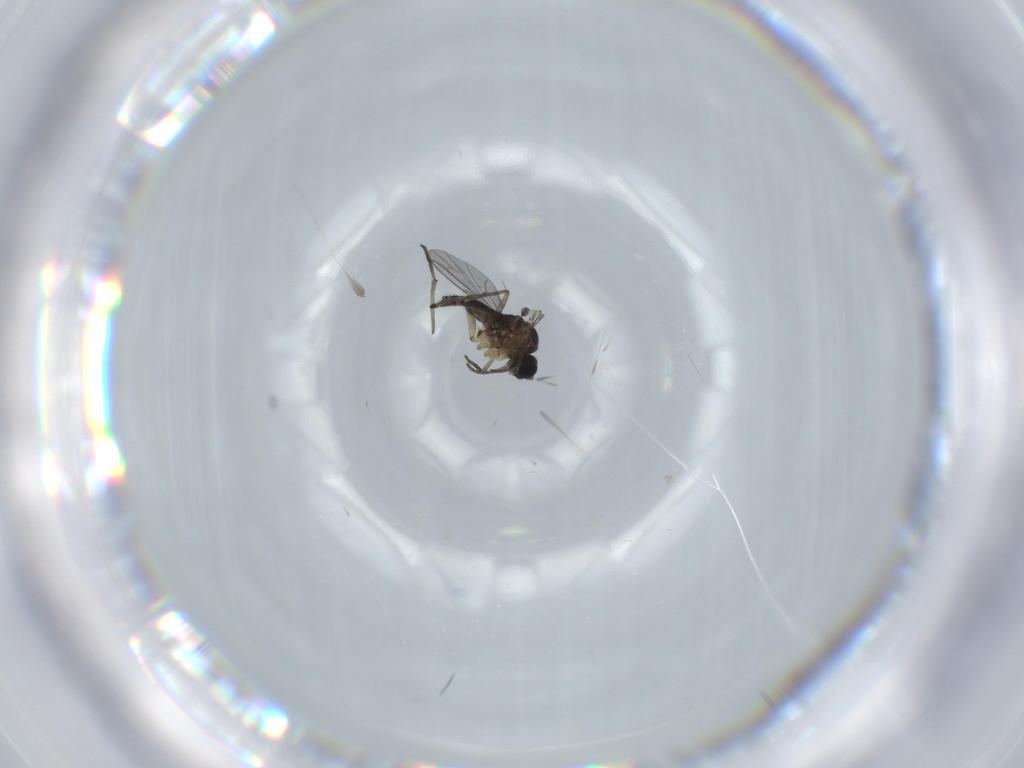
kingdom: Animalia
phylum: Arthropoda
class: Insecta
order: Diptera
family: Sciaridae
